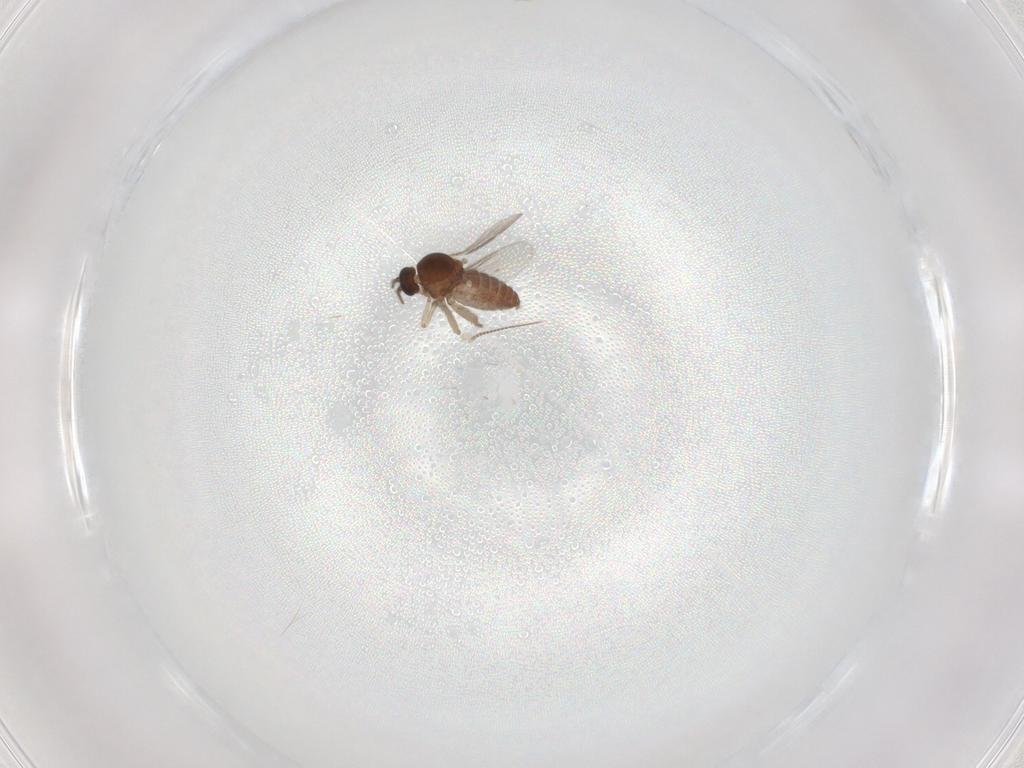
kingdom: Animalia
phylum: Arthropoda
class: Insecta
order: Diptera
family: Ceratopogonidae
